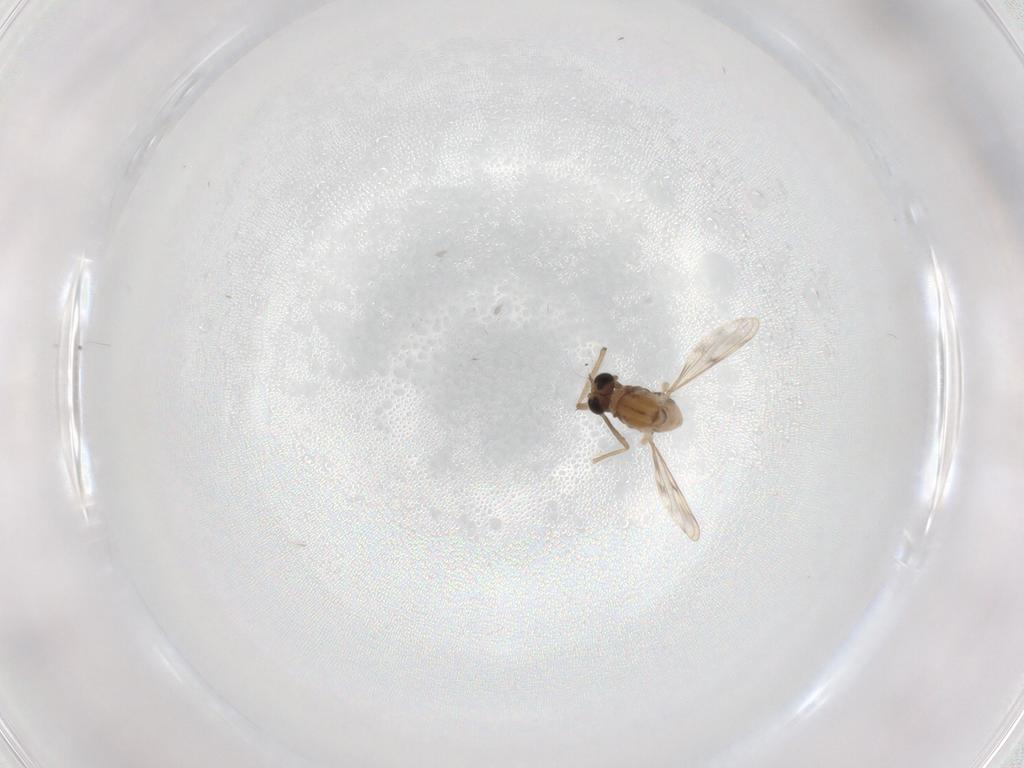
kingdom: Animalia
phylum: Arthropoda
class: Insecta
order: Diptera
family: Chironomidae
